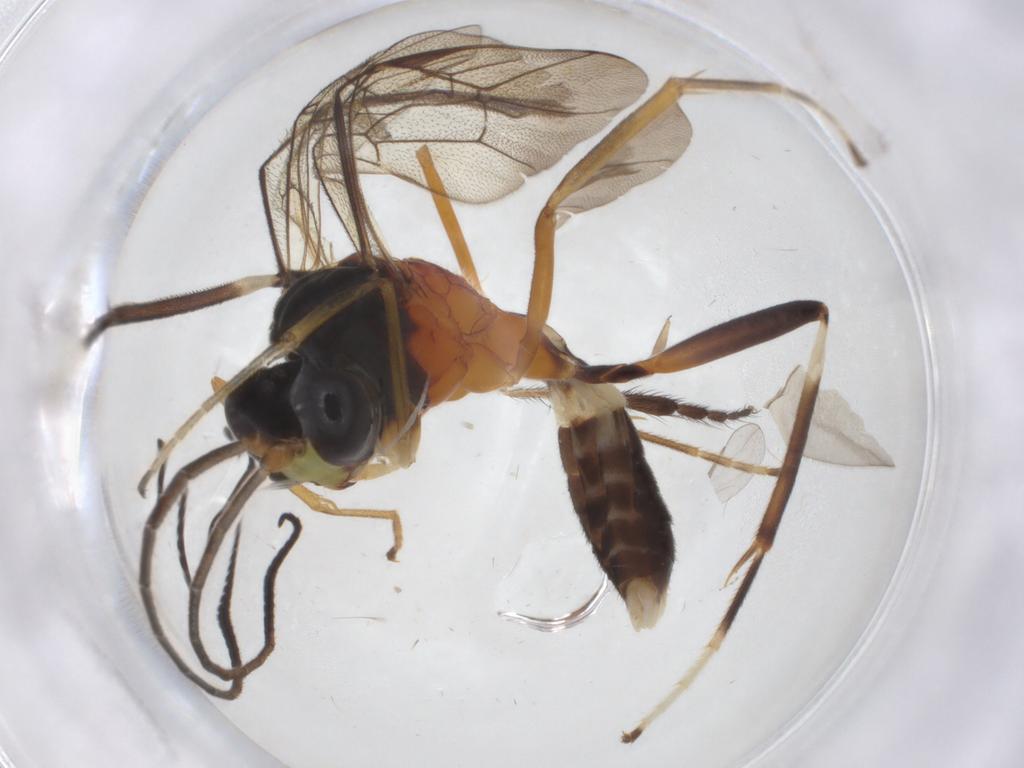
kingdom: Animalia
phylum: Arthropoda
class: Insecta
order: Hymenoptera
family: Ichneumonidae
